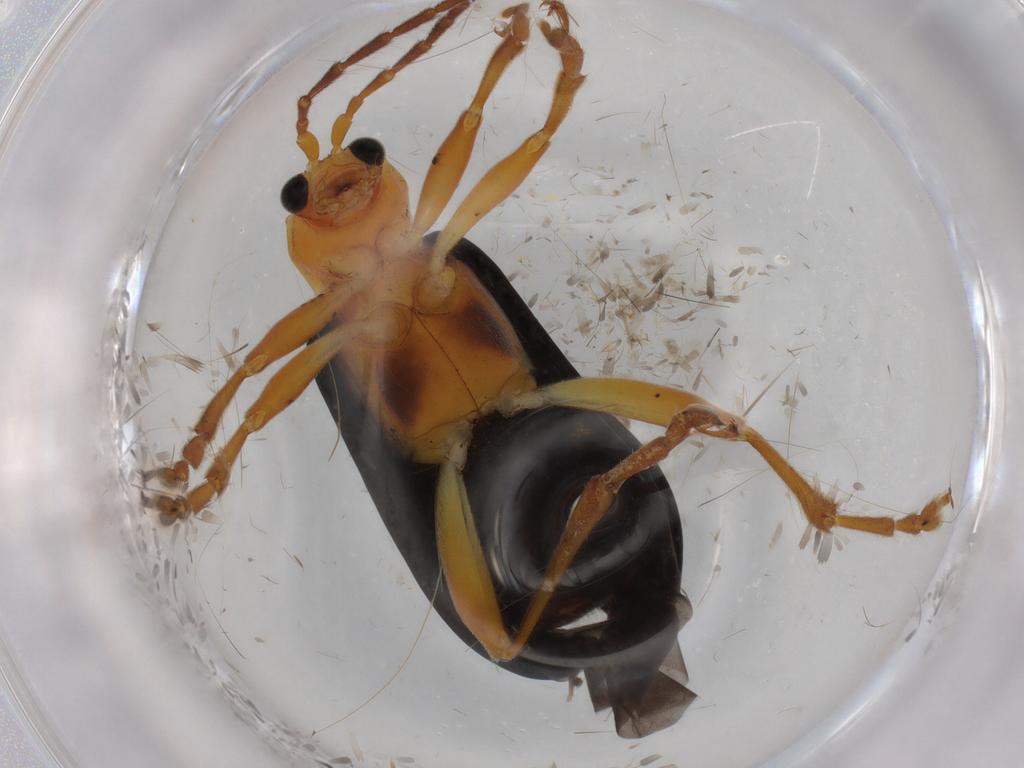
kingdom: Animalia
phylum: Arthropoda
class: Insecta
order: Coleoptera
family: Chrysomelidae
